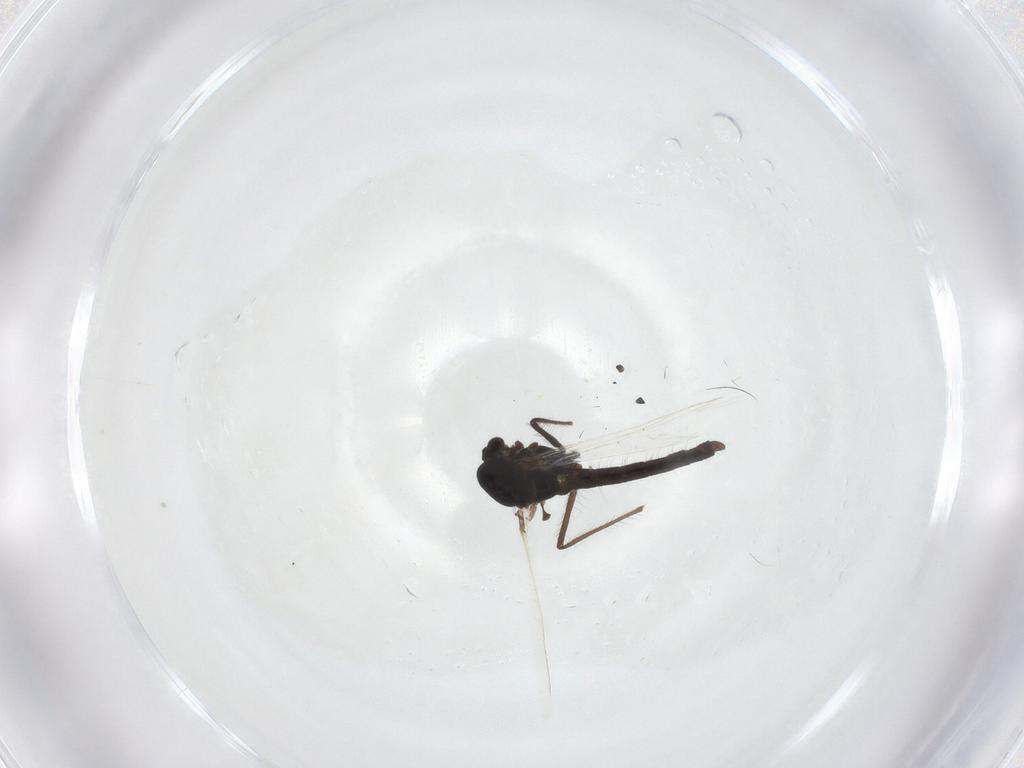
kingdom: Animalia
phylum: Arthropoda
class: Insecta
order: Diptera
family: Chironomidae
